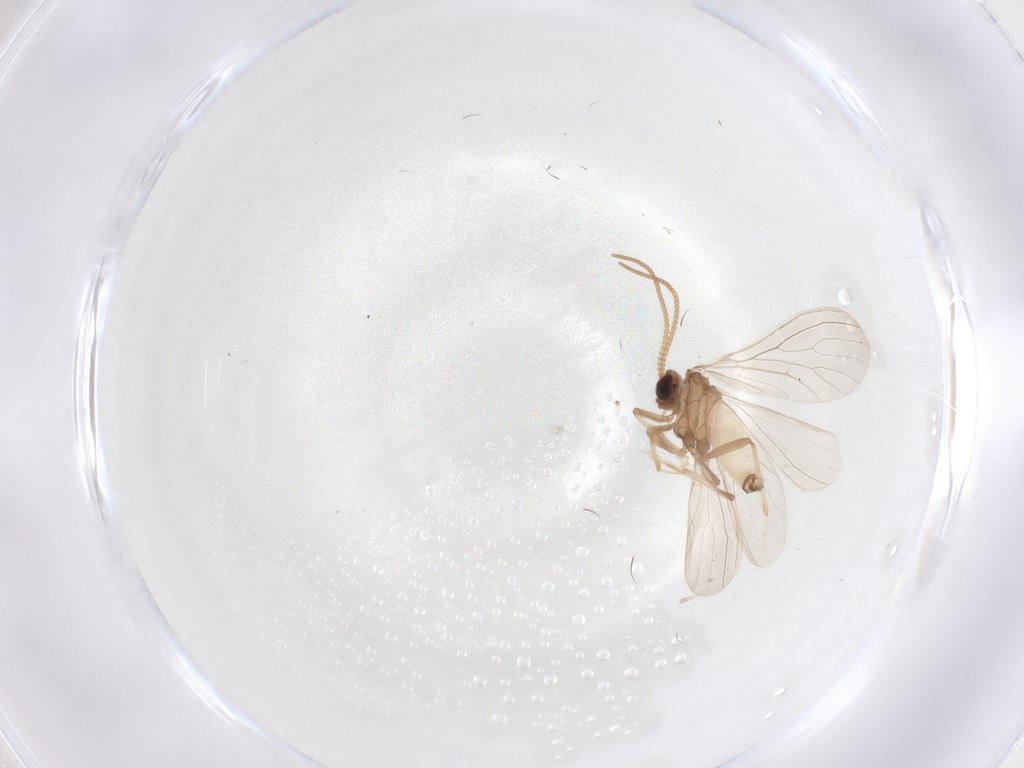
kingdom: Animalia
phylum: Arthropoda
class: Insecta
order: Neuroptera
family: Coniopterygidae
